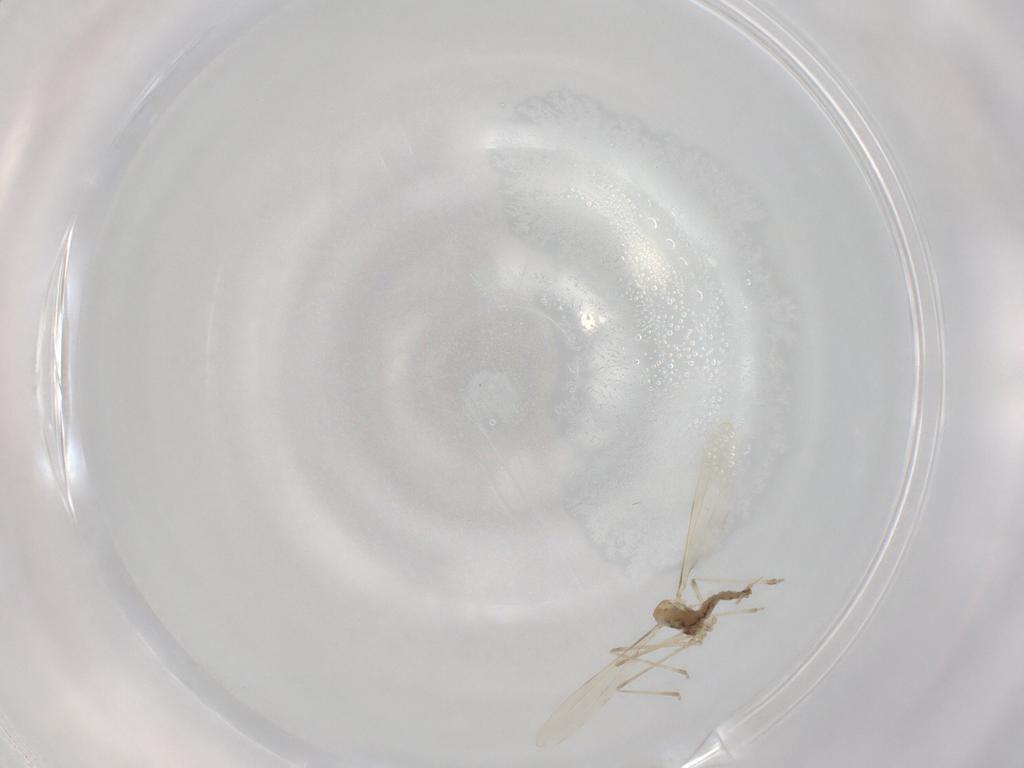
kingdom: Animalia
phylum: Arthropoda
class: Insecta
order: Diptera
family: Cecidomyiidae
